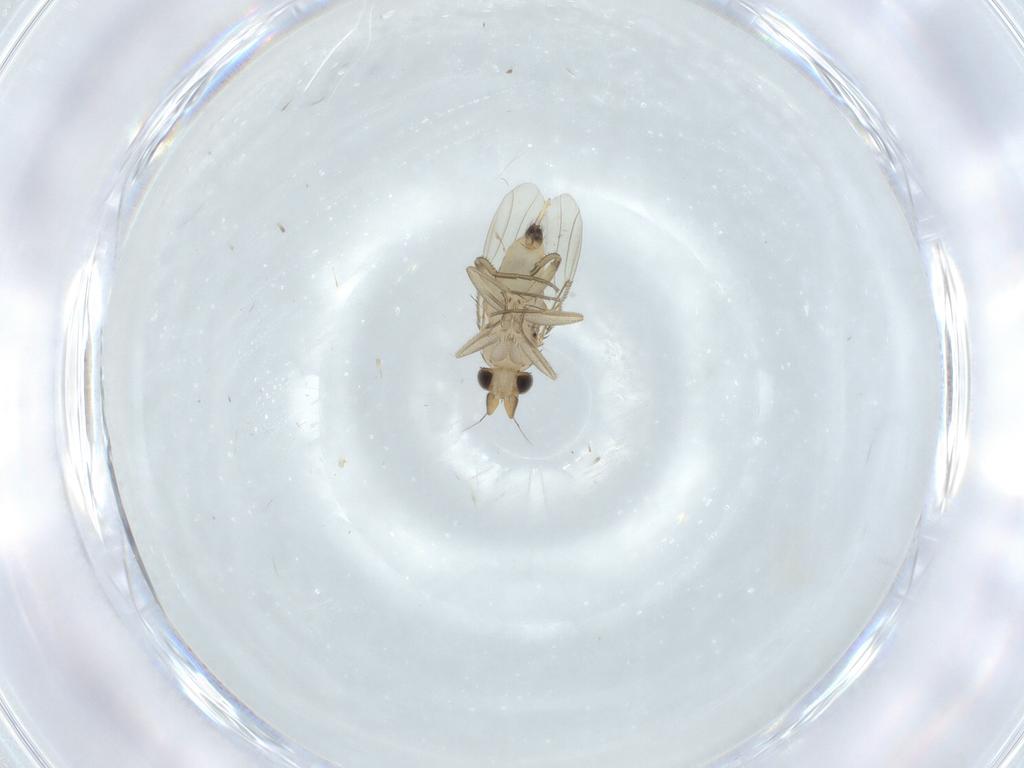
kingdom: Animalia
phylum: Arthropoda
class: Insecta
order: Diptera
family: Phoridae
